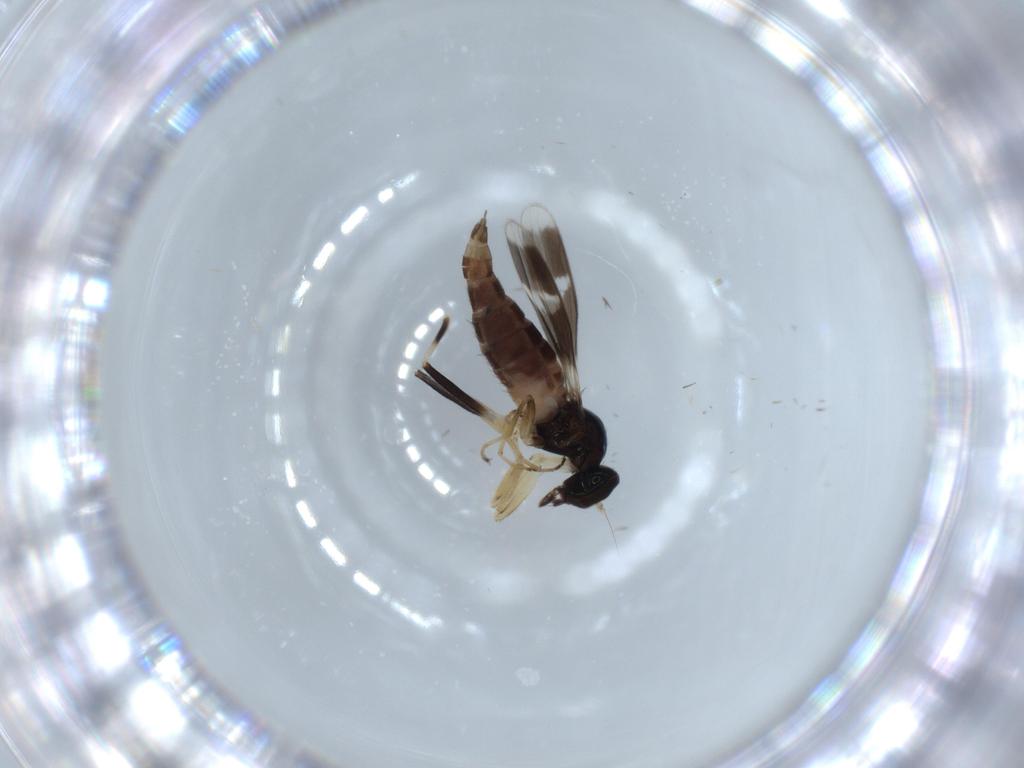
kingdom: Animalia
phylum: Arthropoda
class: Insecta
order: Diptera
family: Hybotidae
